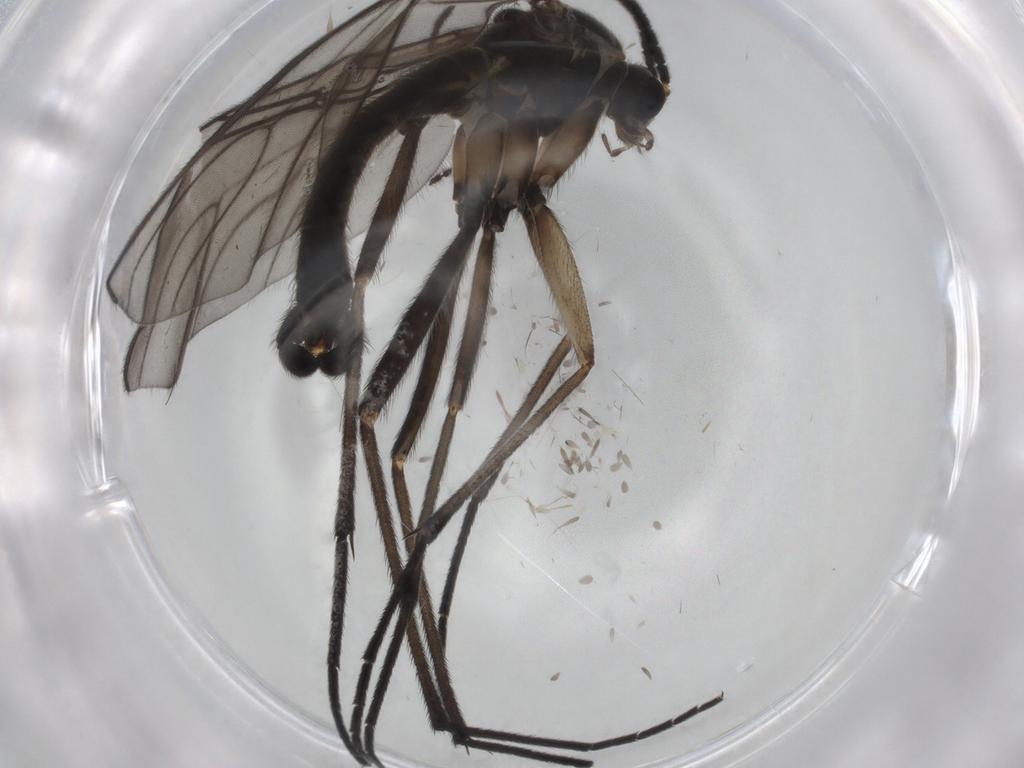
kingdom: Animalia
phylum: Arthropoda
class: Insecta
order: Diptera
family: Sciaridae
